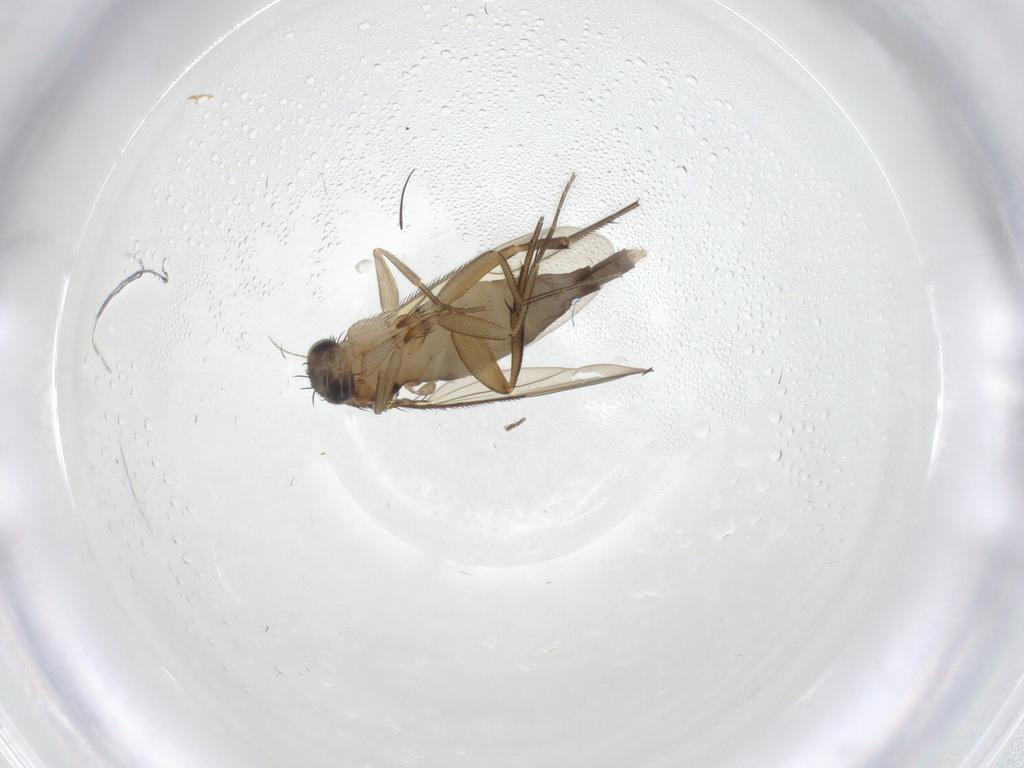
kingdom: Animalia
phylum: Arthropoda
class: Insecta
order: Diptera
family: Phoridae
